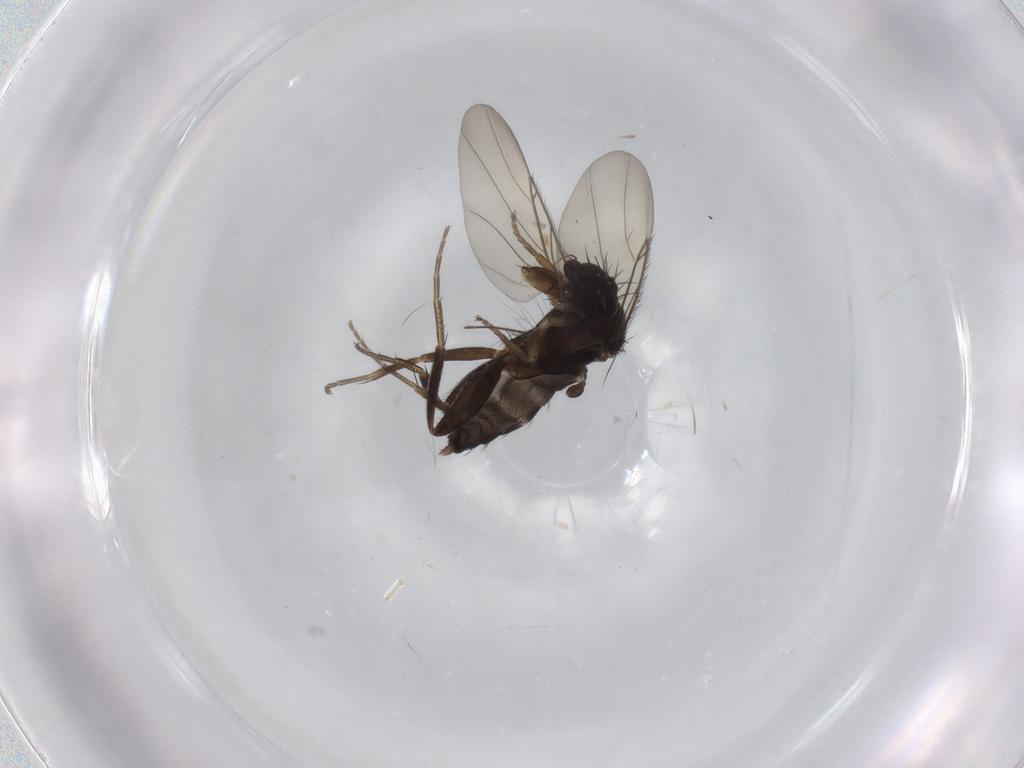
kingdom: Animalia
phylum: Arthropoda
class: Insecta
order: Diptera
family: Phoridae
